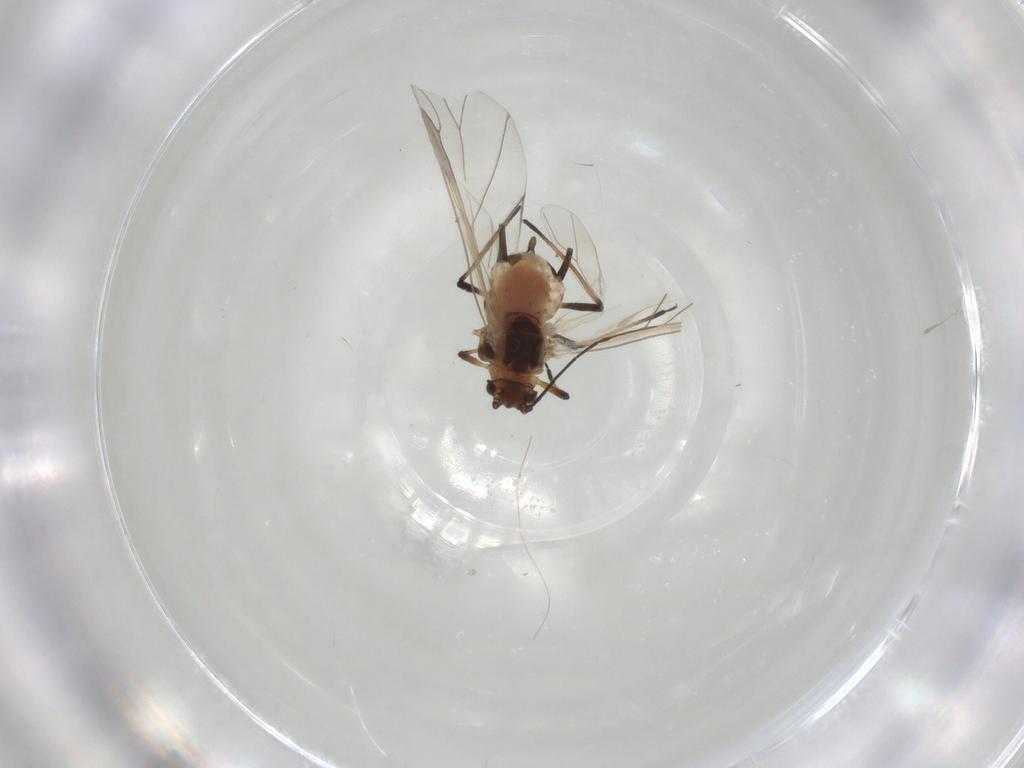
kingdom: Animalia
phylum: Arthropoda
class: Insecta
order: Hemiptera
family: Aphididae
